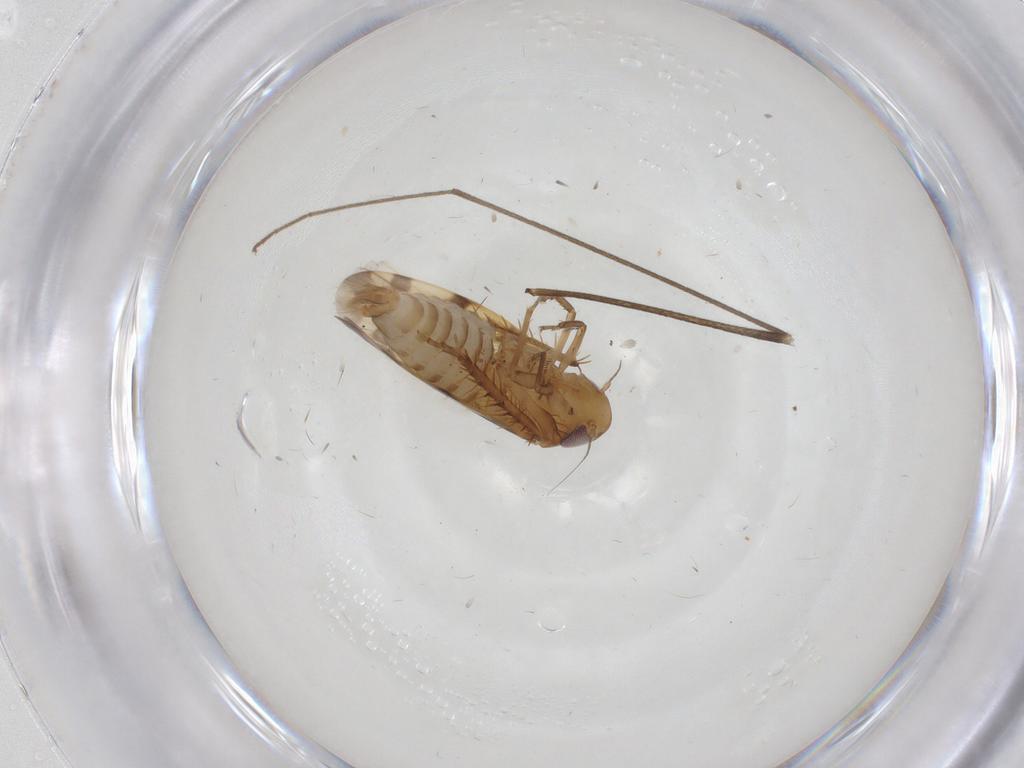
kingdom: Animalia
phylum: Arthropoda
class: Insecta
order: Hemiptera
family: Cicadellidae
